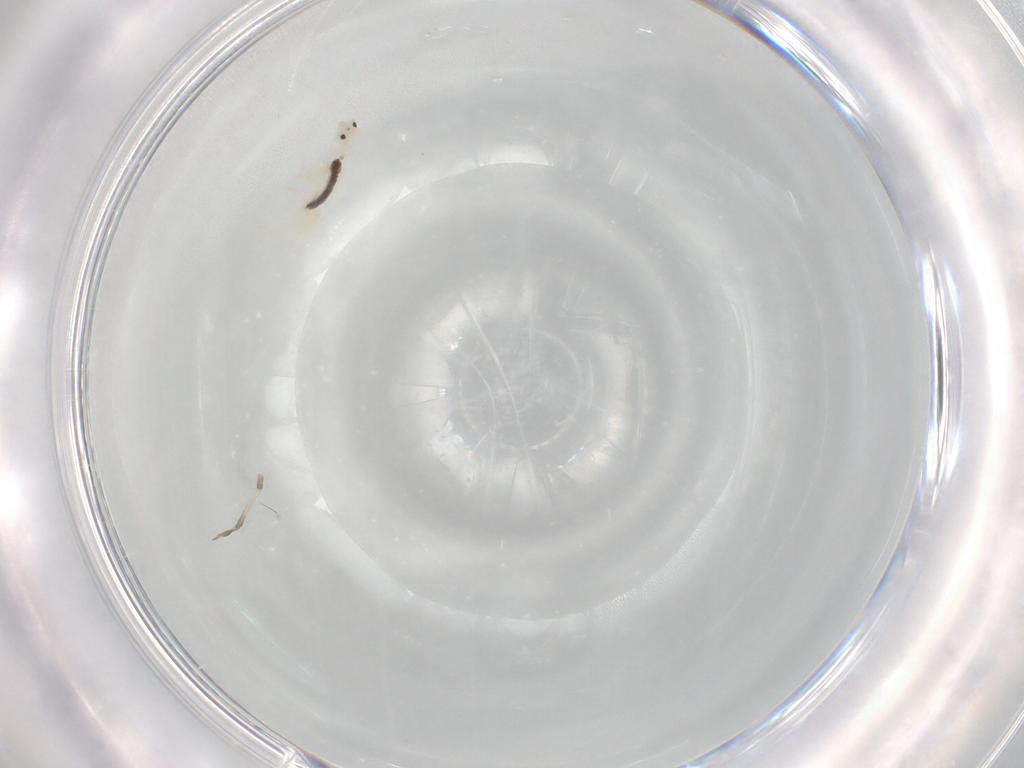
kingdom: Animalia
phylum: Arthropoda
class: Collembola
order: Entomobryomorpha
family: Entomobryidae
